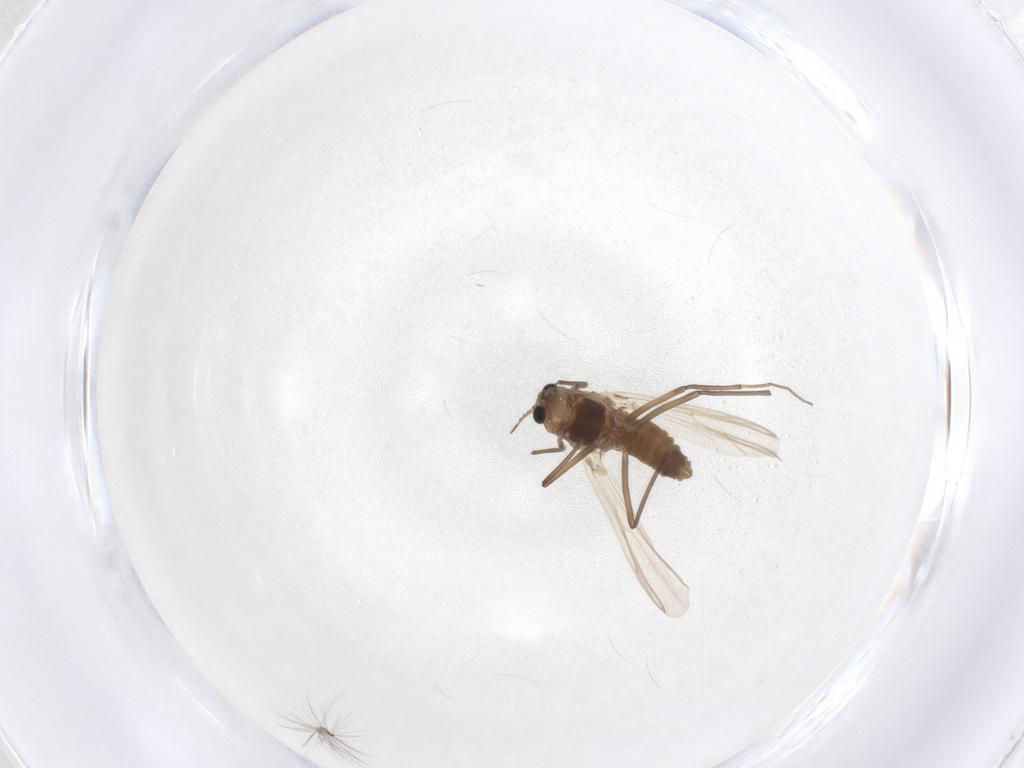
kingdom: Animalia
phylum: Arthropoda
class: Insecta
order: Diptera
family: Chironomidae
